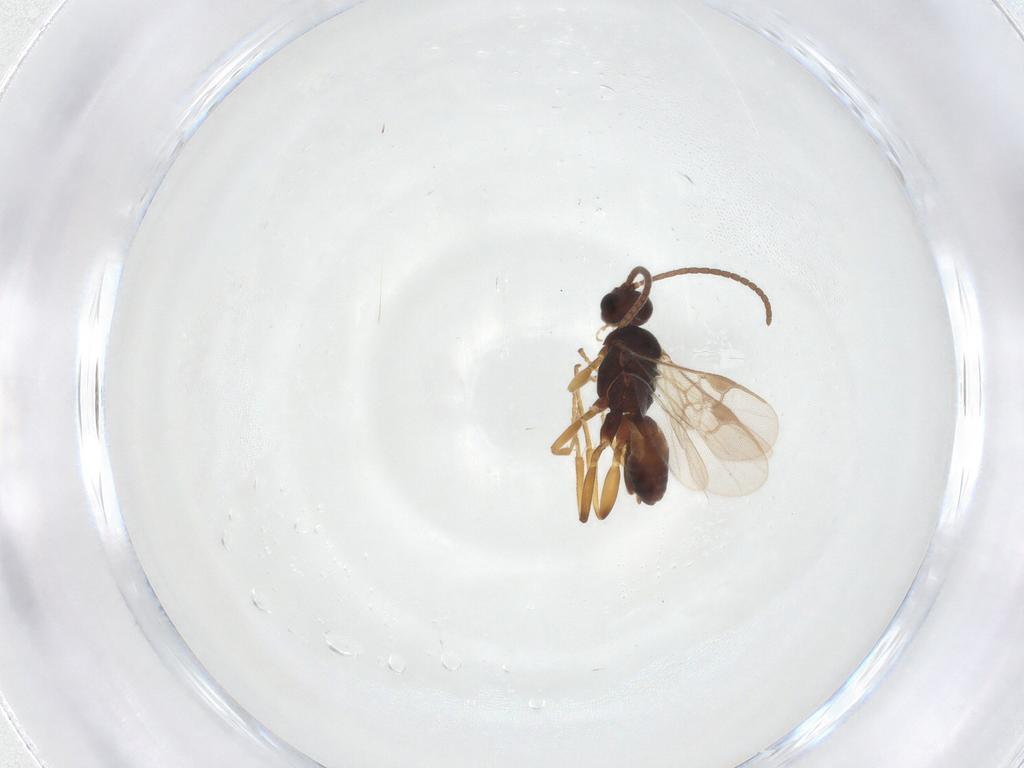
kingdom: Animalia
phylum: Arthropoda
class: Insecta
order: Hymenoptera
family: Braconidae
